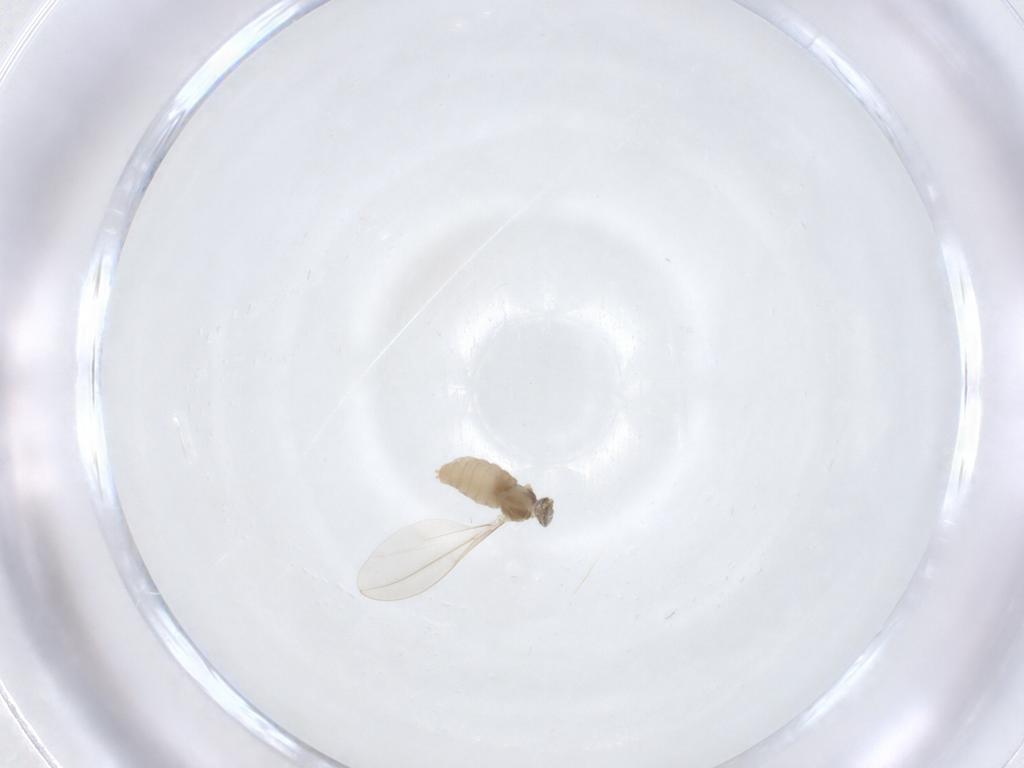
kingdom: Animalia
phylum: Arthropoda
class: Insecta
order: Diptera
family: Cecidomyiidae
